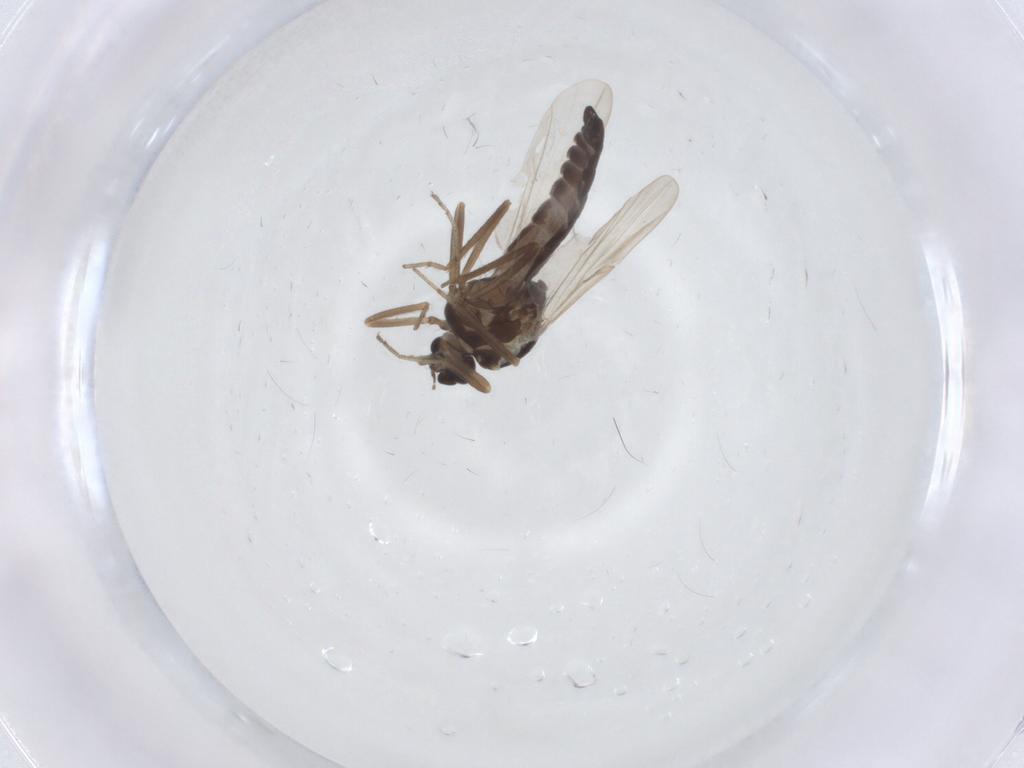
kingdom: Animalia
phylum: Arthropoda
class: Insecta
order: Diptera
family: Ceratopogonidae
